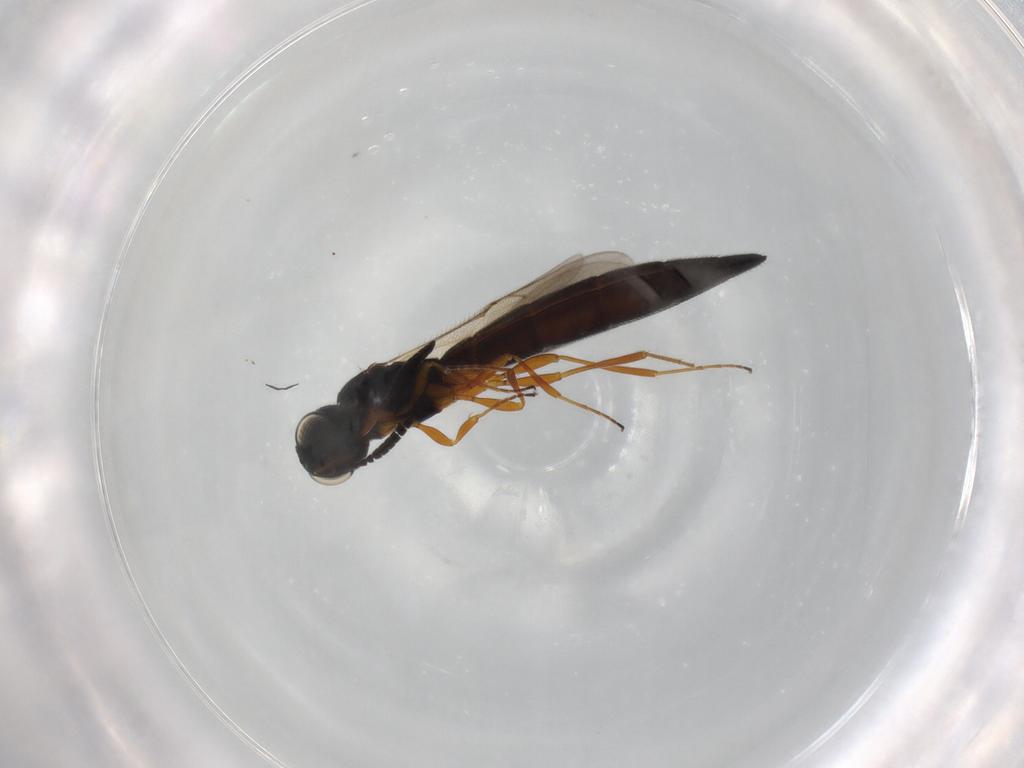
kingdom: Animalia
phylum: Arthropoda
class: Insecta
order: Hymenoptera
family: Scelionidae
